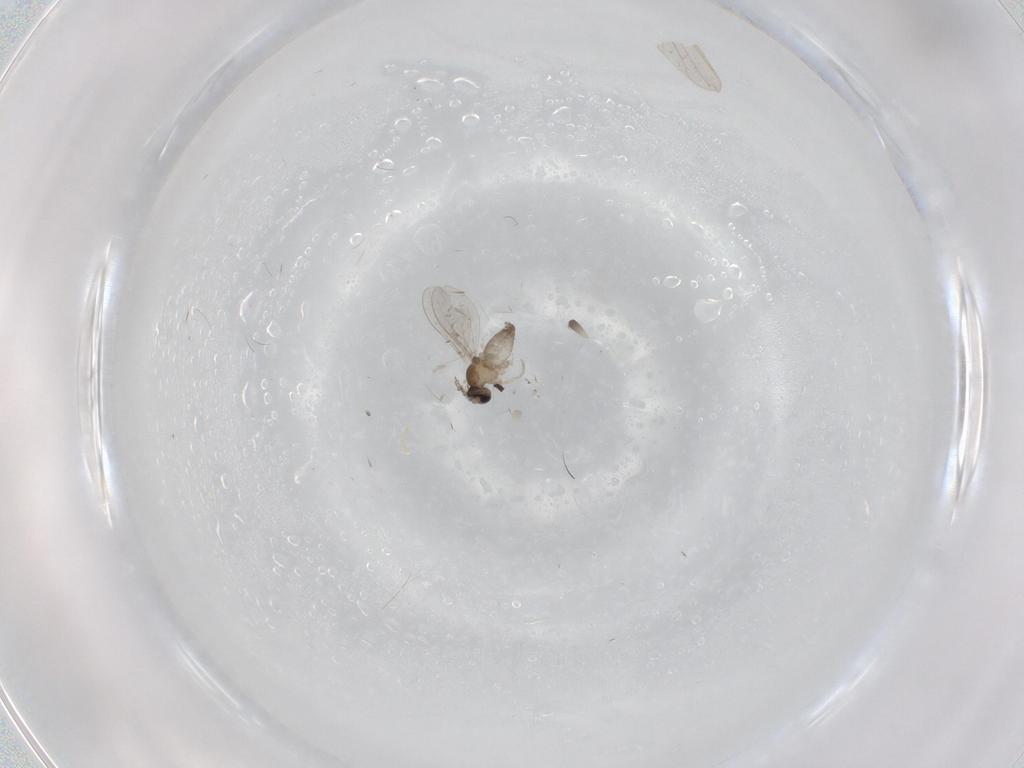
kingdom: Animalia
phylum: Arthropoda
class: Insecta
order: Diptera
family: Cecidomyiidae
